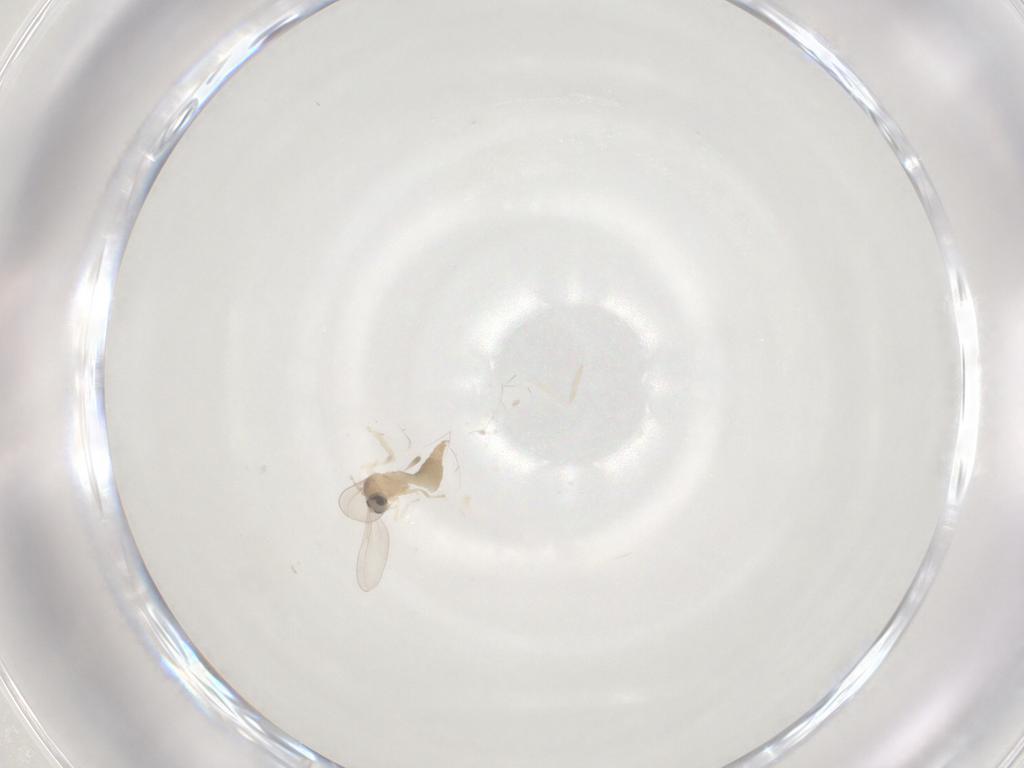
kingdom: Animalia
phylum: Arthropoda
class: Insecta
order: Diptera
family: Cecidomyiidae
